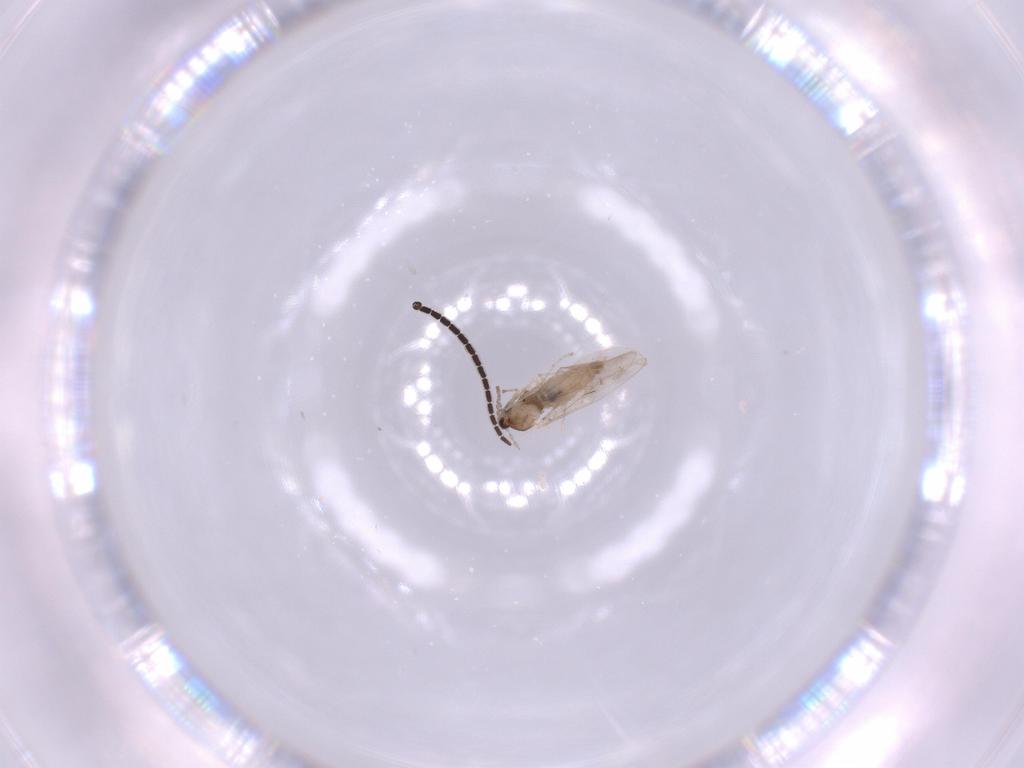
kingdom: Animalia
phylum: Arthropoda
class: Insecta
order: Diptera
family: Cecidomyiidae
